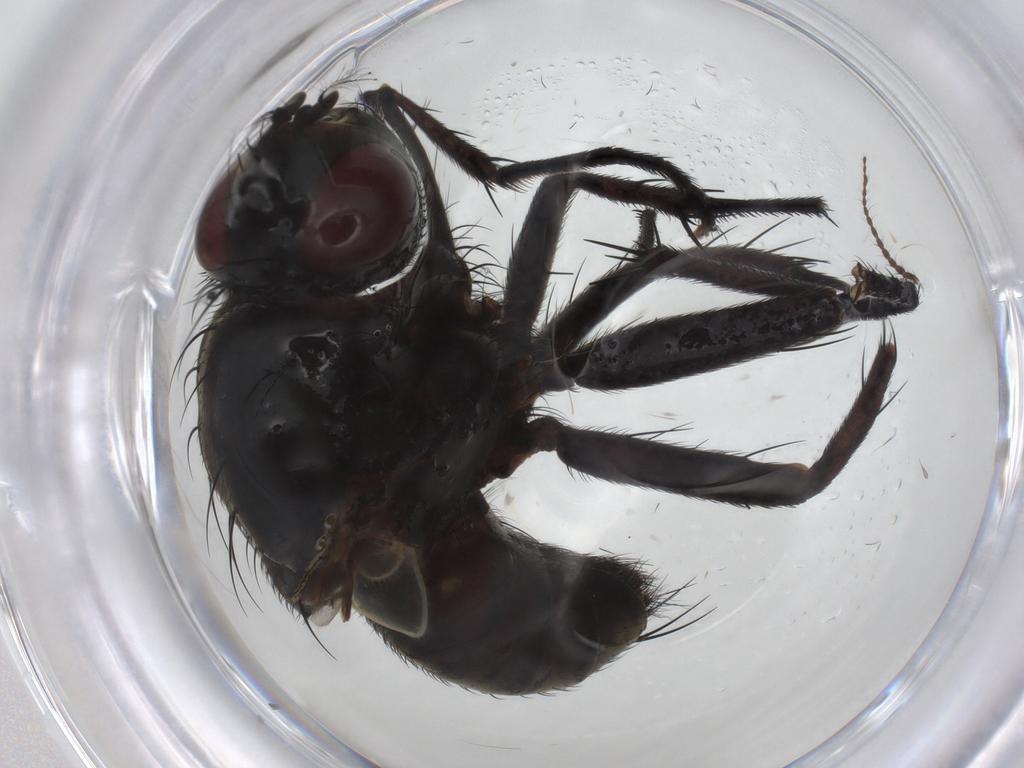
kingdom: Animalia
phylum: Arthropoda
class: Insecta
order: Diptera
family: Sarcophagidae
